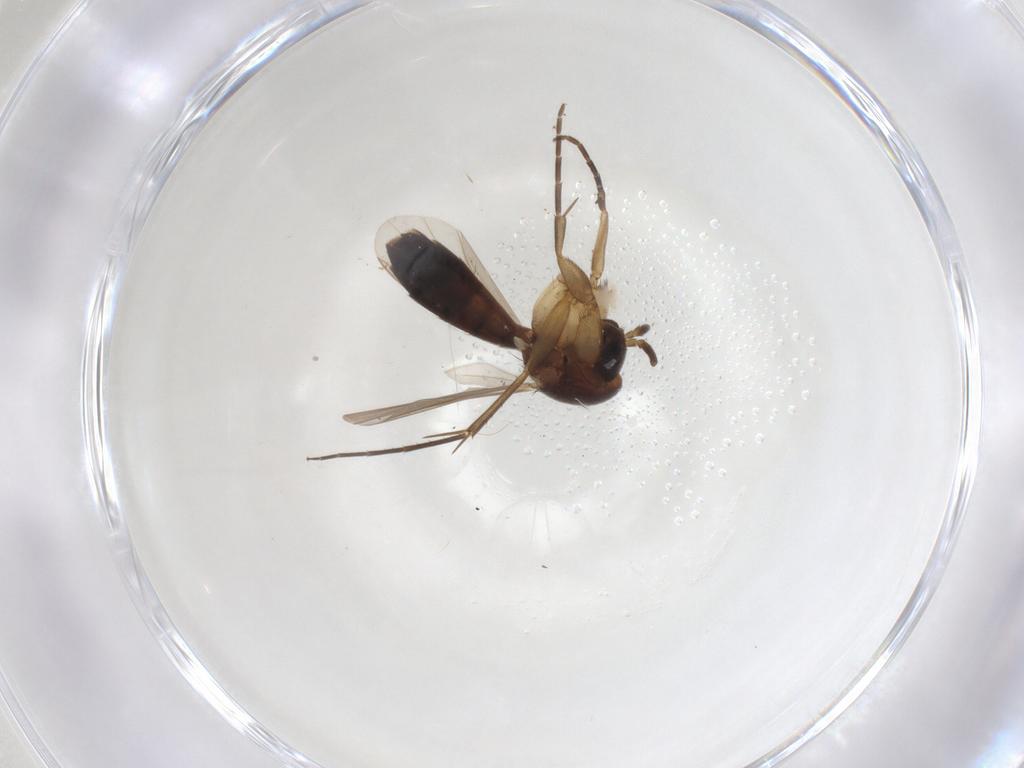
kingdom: Animalia
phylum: Arthropoda
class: Insecta
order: Diptera
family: Mycetophilidae
